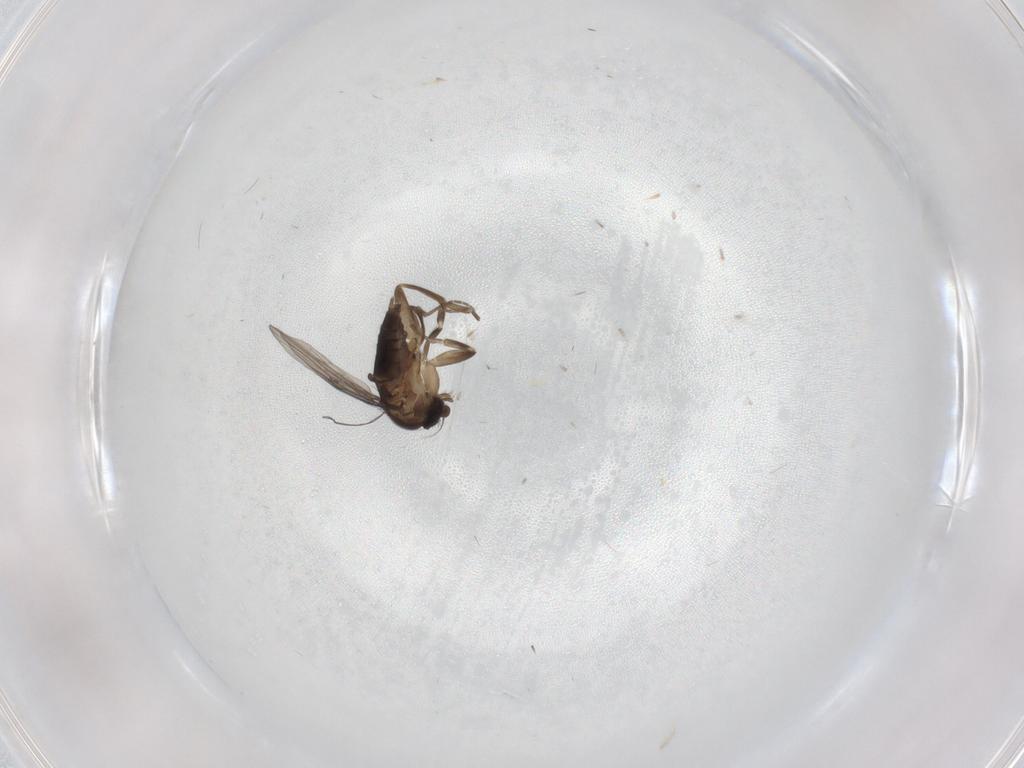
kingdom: Animalia
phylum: Arthropoda
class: Insecta
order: Diptera
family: Phoridae
